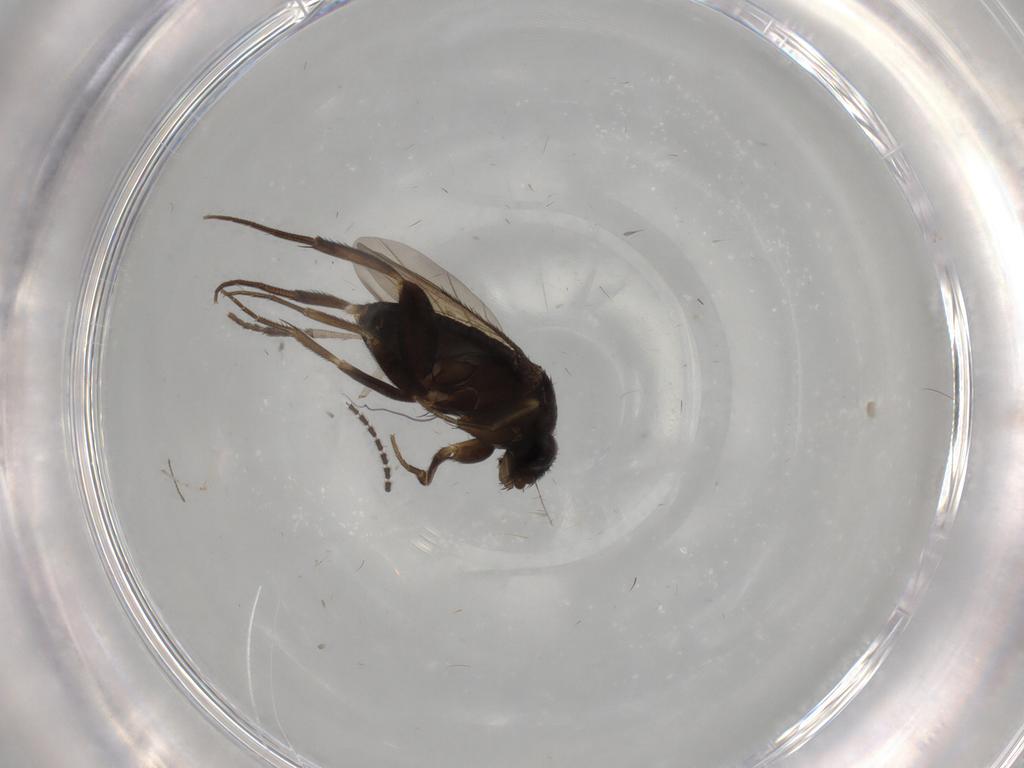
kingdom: Animalia
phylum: Arthropoda
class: Insecta
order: Diptera
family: Phoridae
